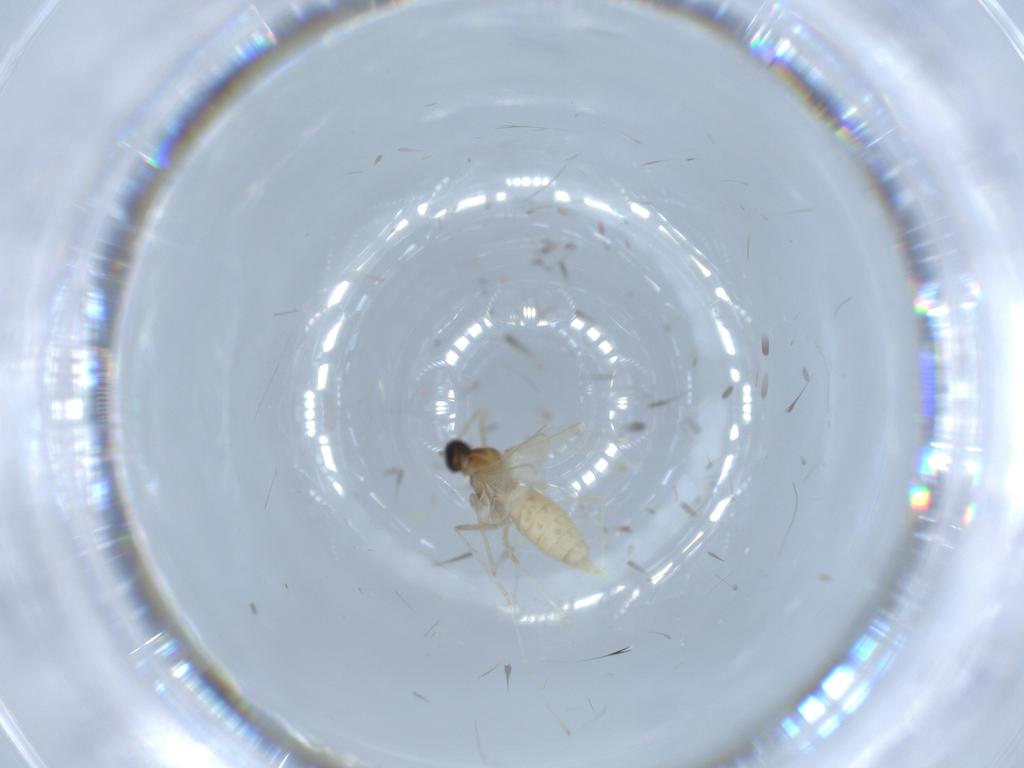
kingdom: Animalia
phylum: Arthropoda
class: Insecta
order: Diptera
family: Cecidomyiidae
